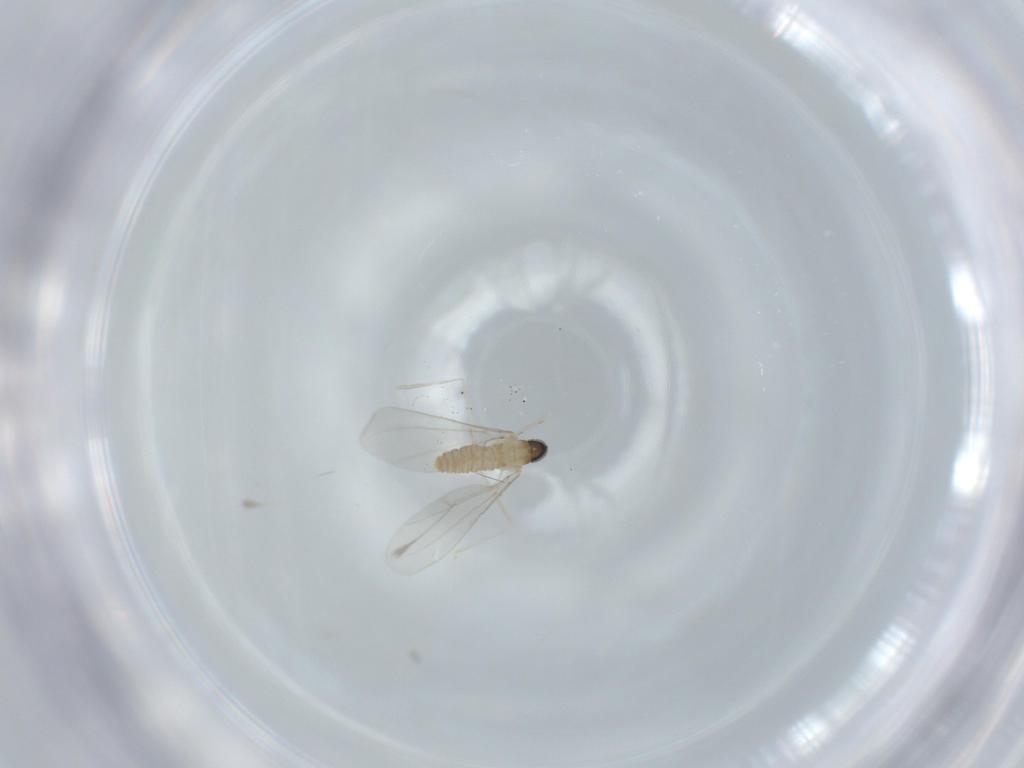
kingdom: Animalia
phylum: Arthropoda
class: Insecta
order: Diptera
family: Cecidomyiidae
